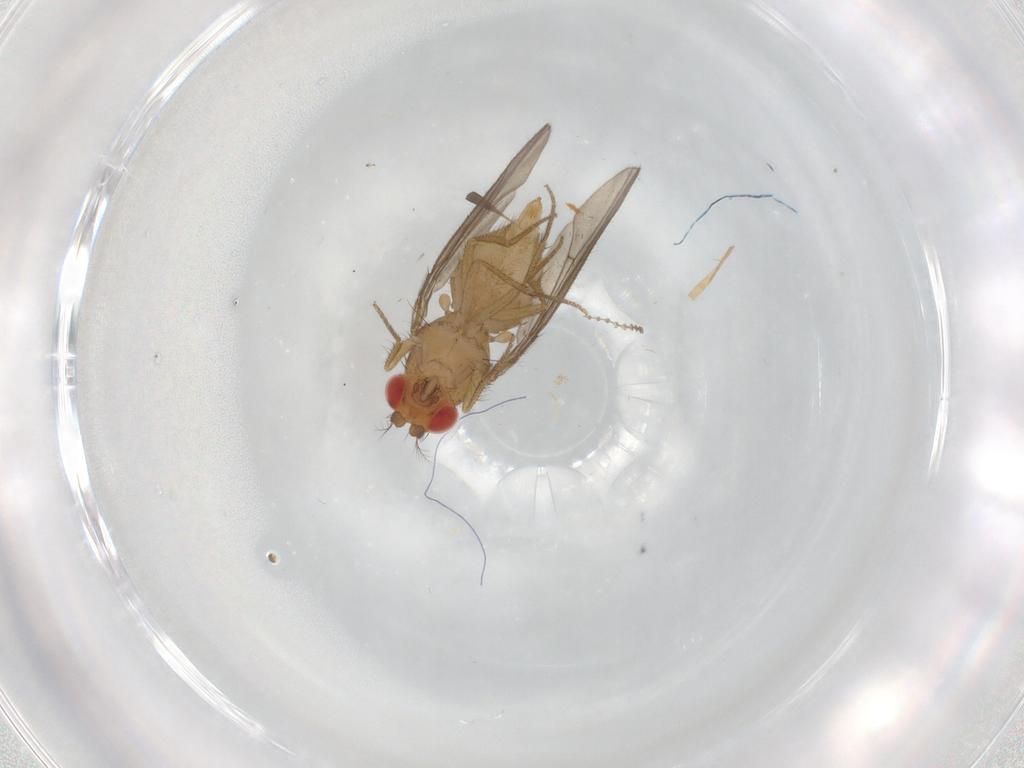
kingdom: Animalia
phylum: Arthropoda
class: Insecta
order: Diptera
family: Drosophilidae
